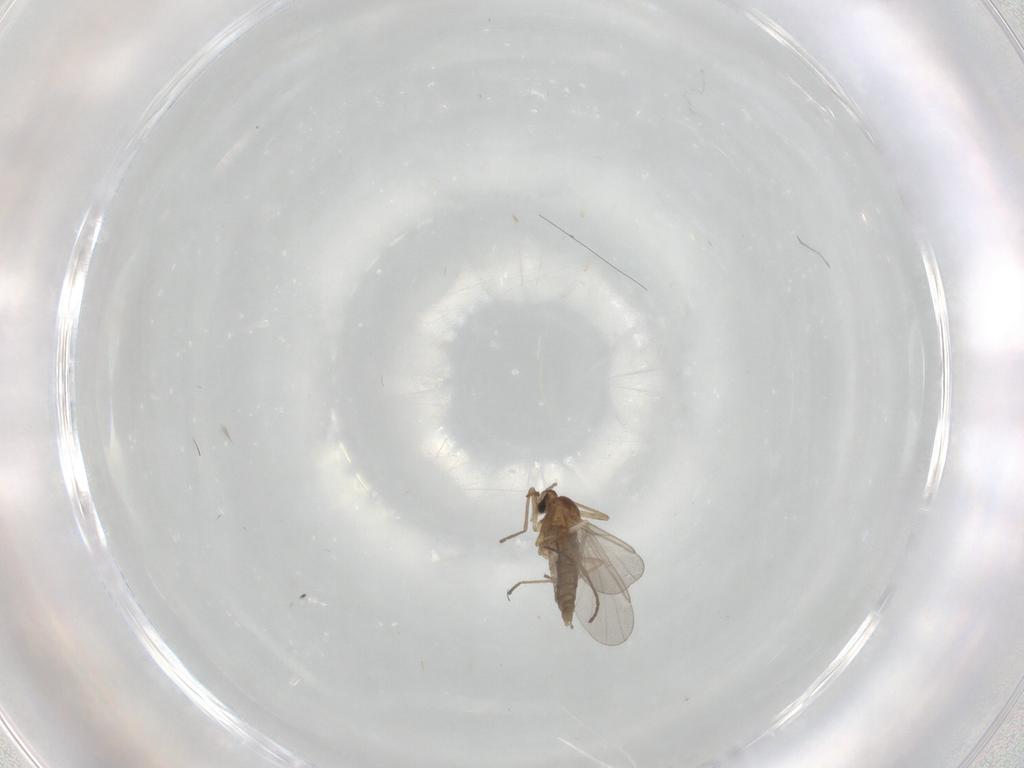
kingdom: Animalia
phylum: Arthropoda
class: Insecta
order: Diptera
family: Cecidomyiidae
